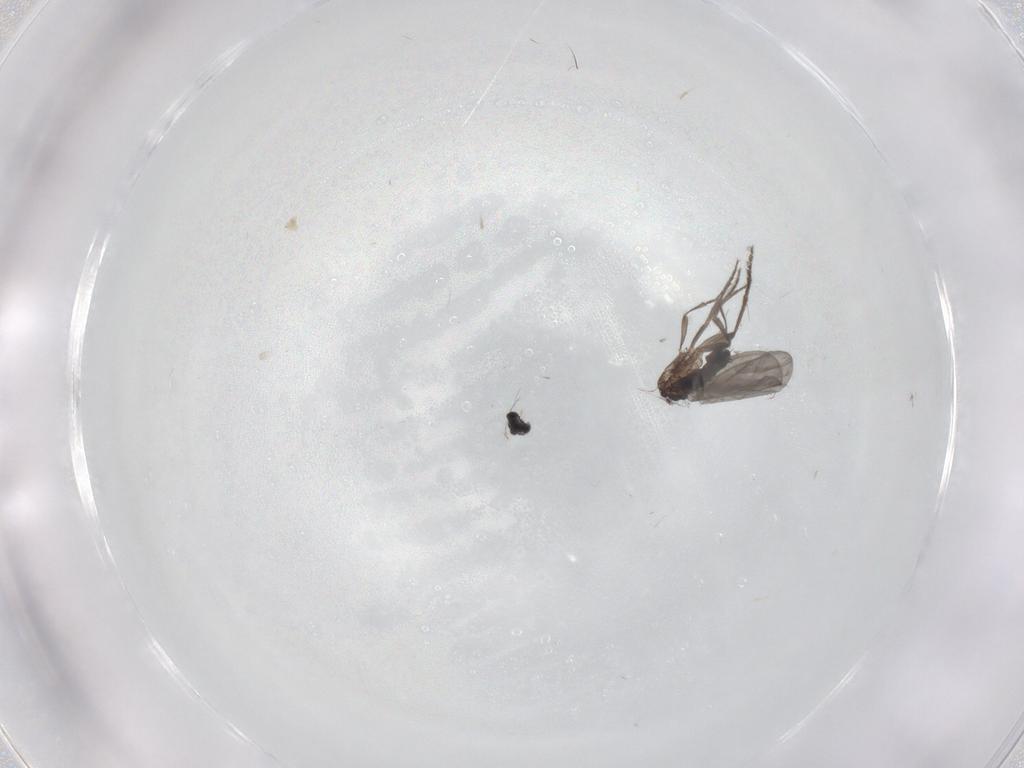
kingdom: Animalia
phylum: Arthropoda
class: Insecta
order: Diptera
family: Phoridae
